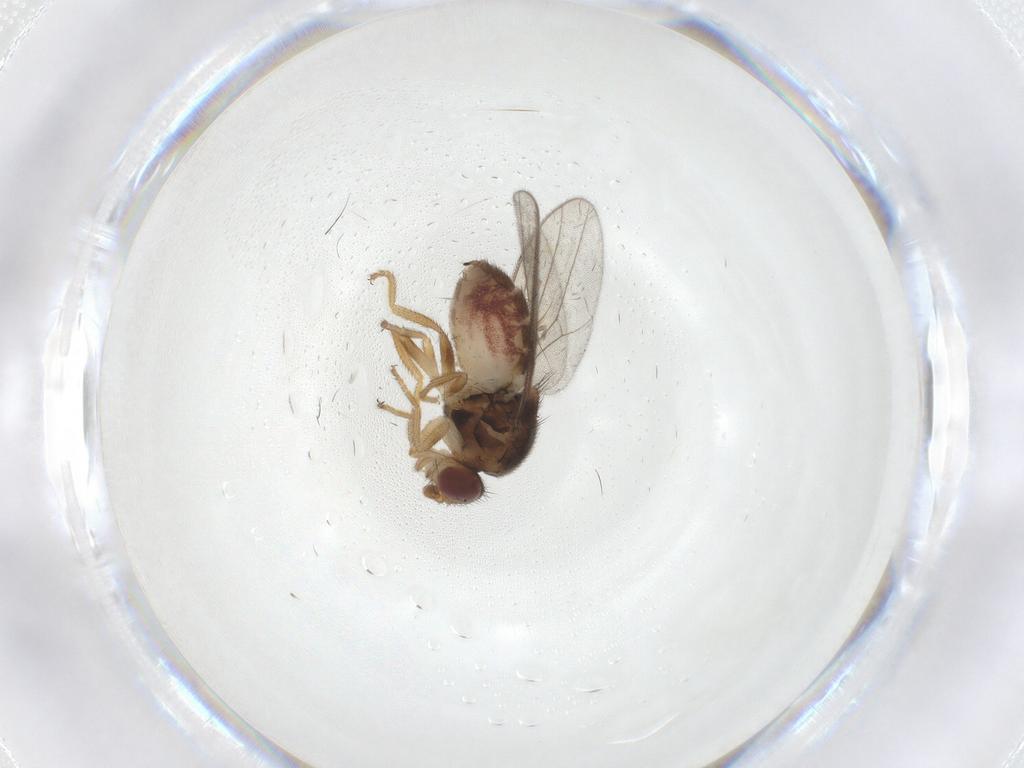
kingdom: Animalia
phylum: Arthropoda
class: Insecta
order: Diptera
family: Chloropidae
